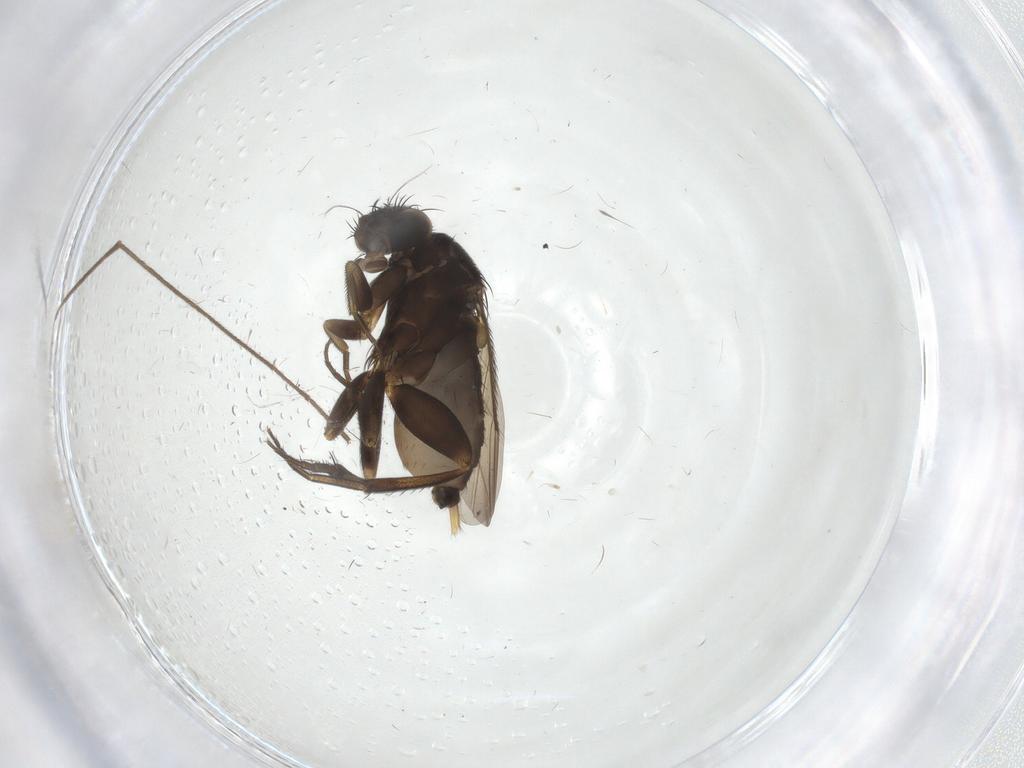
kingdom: Animalia
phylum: Arthropoda
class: Insecta
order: Diptera
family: Phoridae
